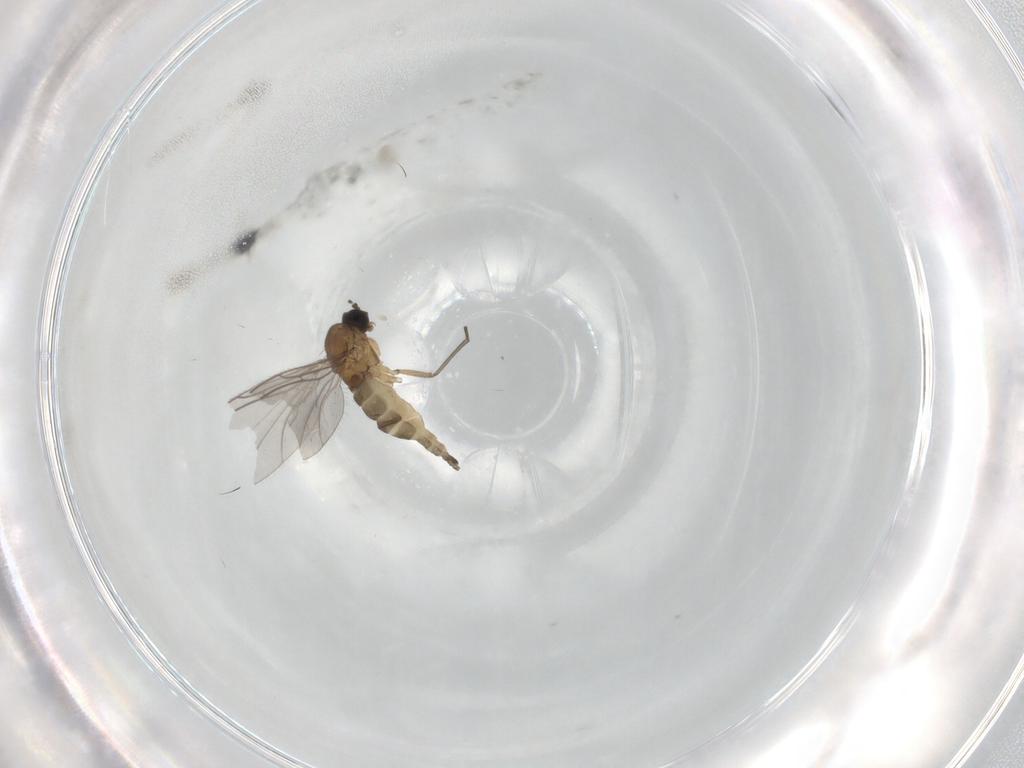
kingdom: Animalia
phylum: Arthropoda
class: Insecta
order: Diptera
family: Sciaridae
